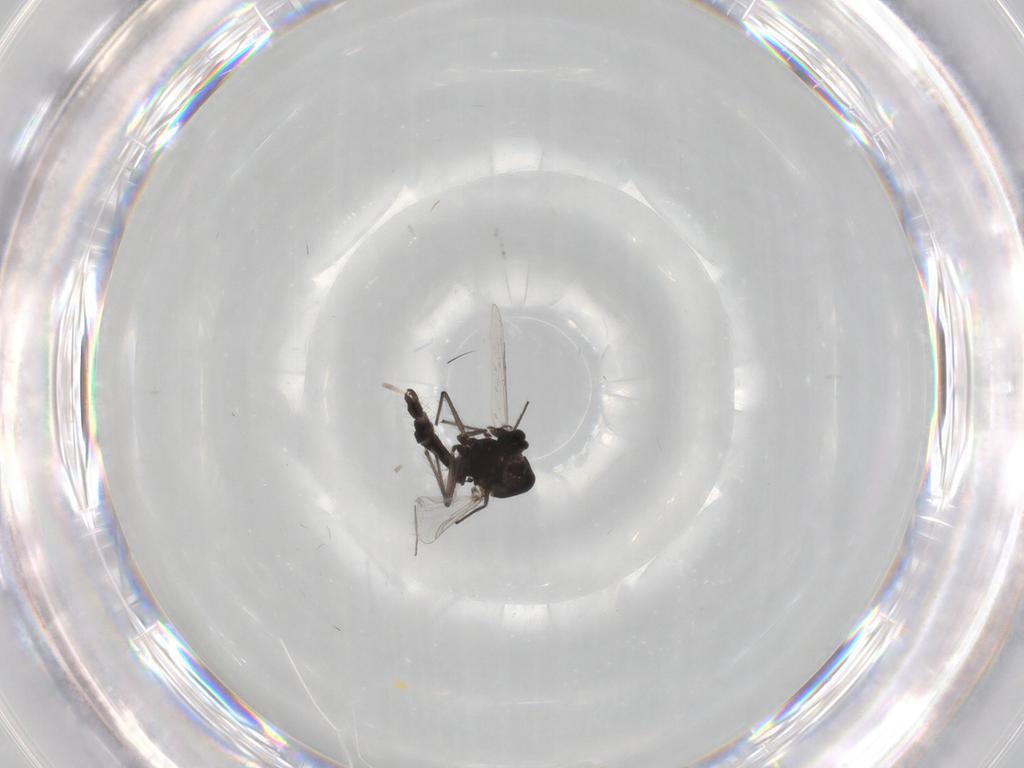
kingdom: Animalia
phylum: Arthropoda
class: Insecta
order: Diptera
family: Chironomidae
